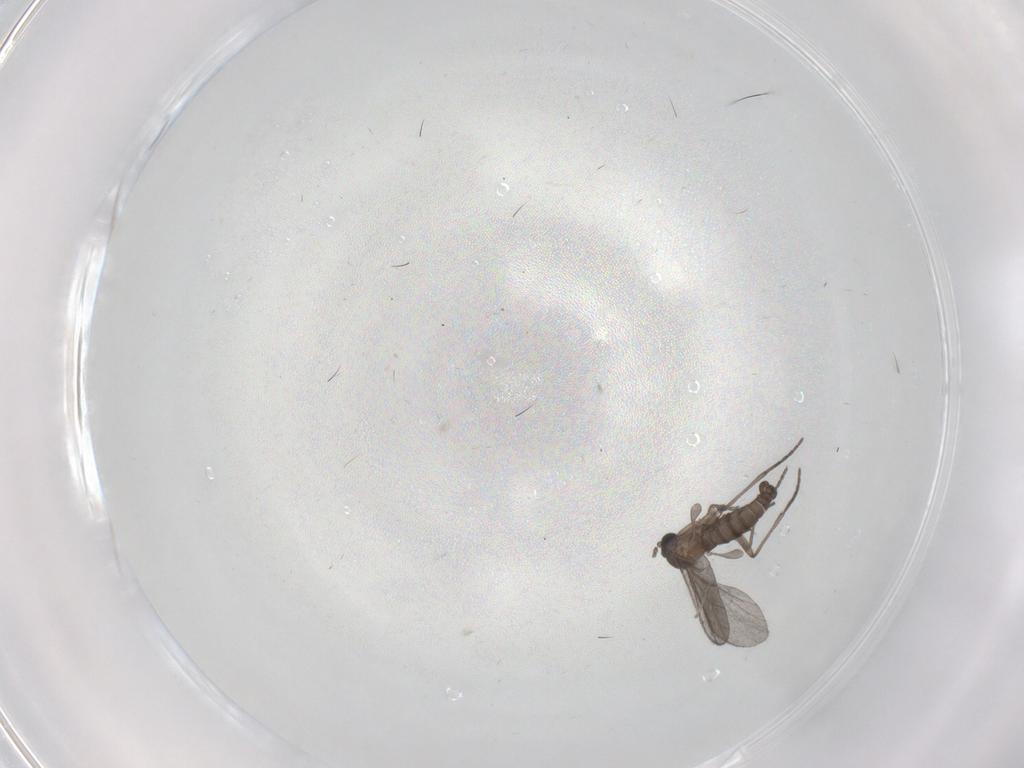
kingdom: Animalia
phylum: Arthropoda
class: Insecta
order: Diptera
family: Sciaridae
